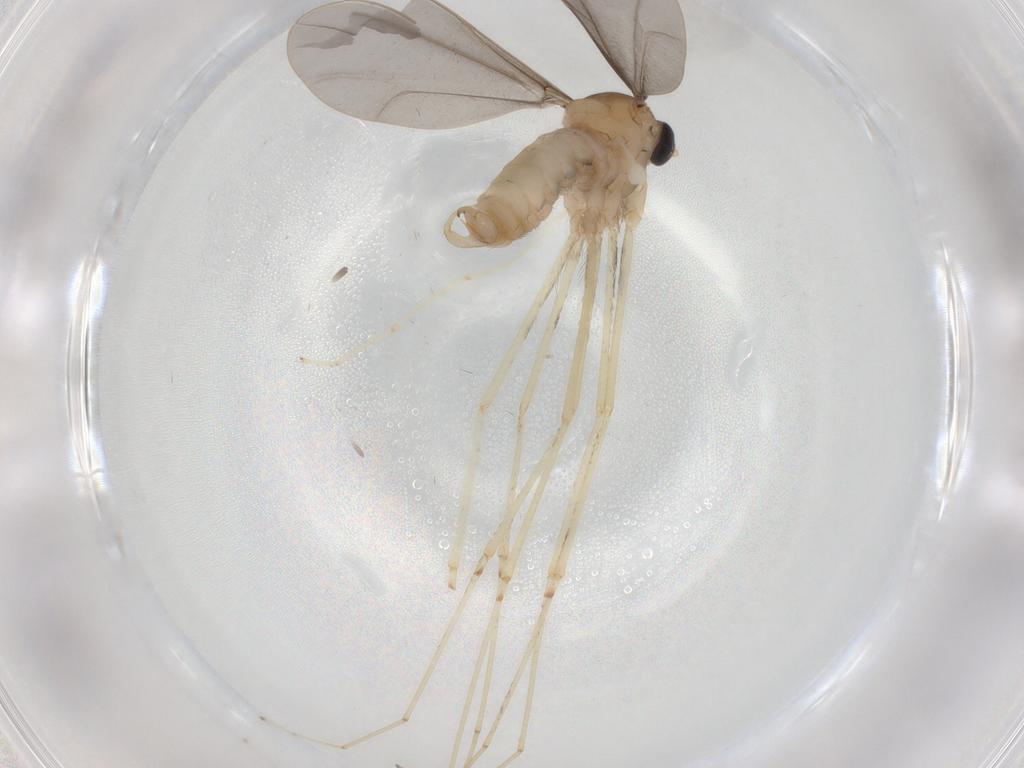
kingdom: Animalia
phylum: Arthropoda
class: Insecta
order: Diptera
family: Cecidomyiidae
